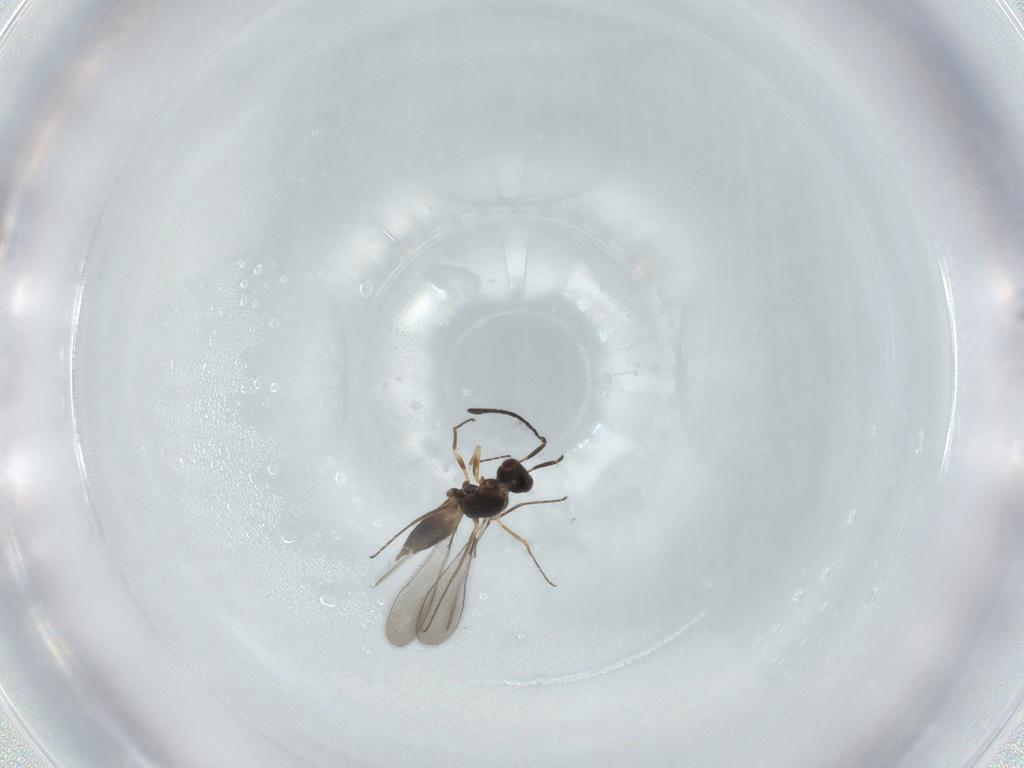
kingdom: Animalia
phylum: Arthropoda
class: Insecta
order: Hymenoptera
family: Mymaridae
